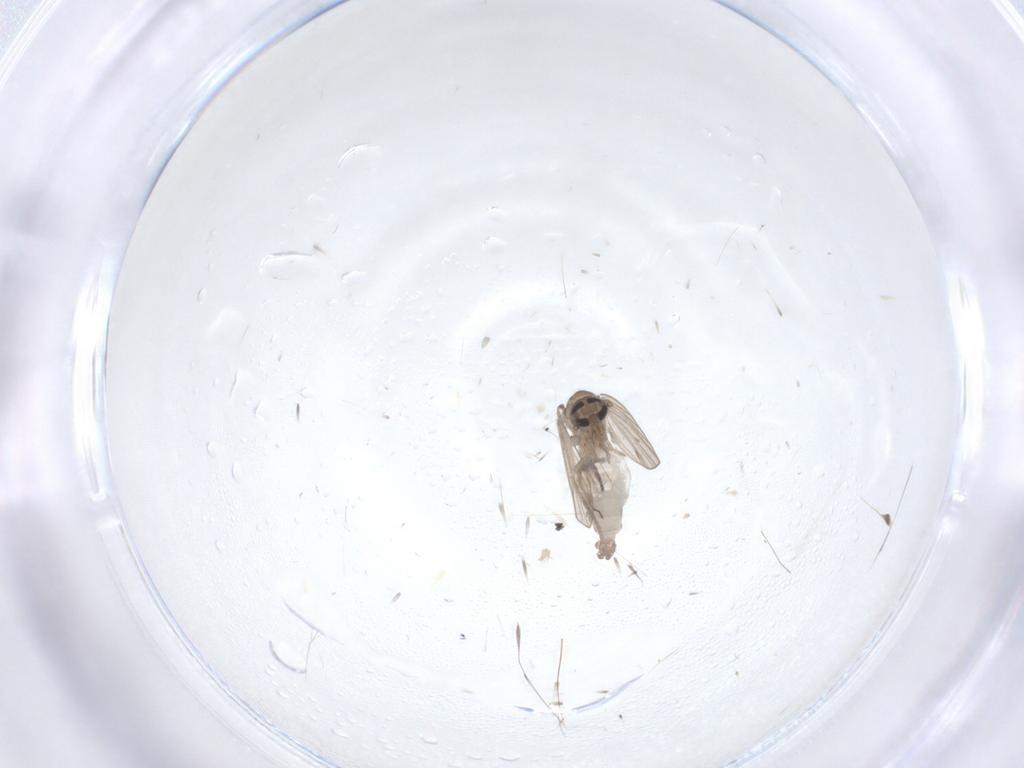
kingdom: Animalia
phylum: Arthropoda
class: Insecta
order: Diptera
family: Psychodidae
